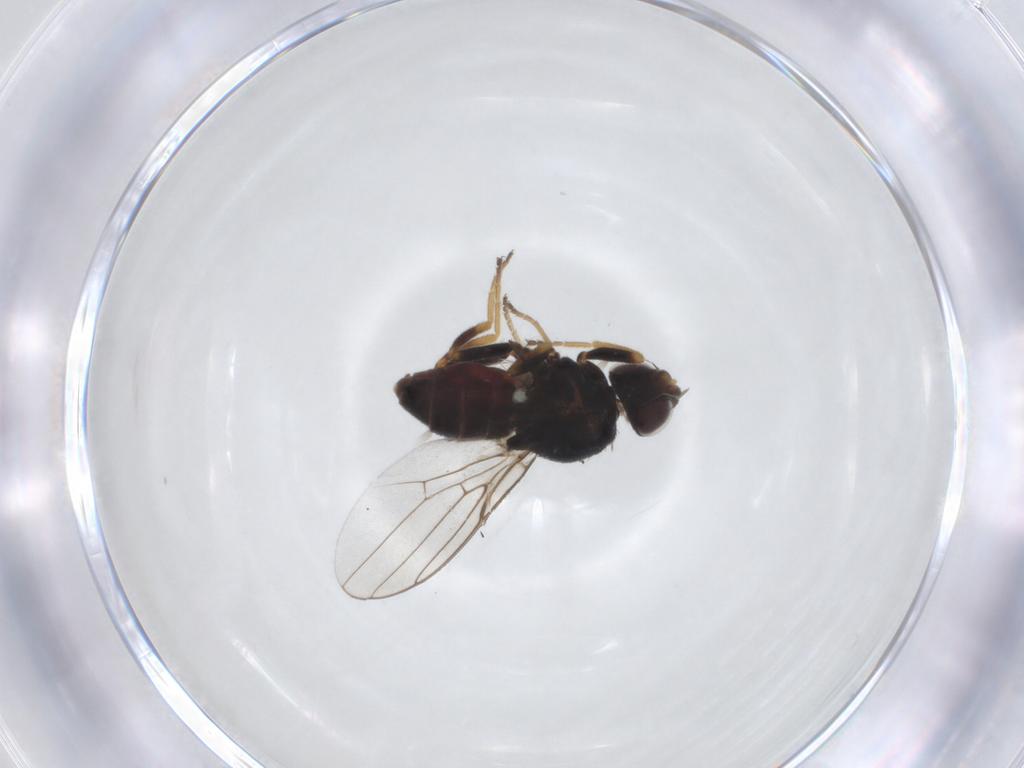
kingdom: Animalia
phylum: Arthropoda
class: Insecta
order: Diptera
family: Chloropidae
